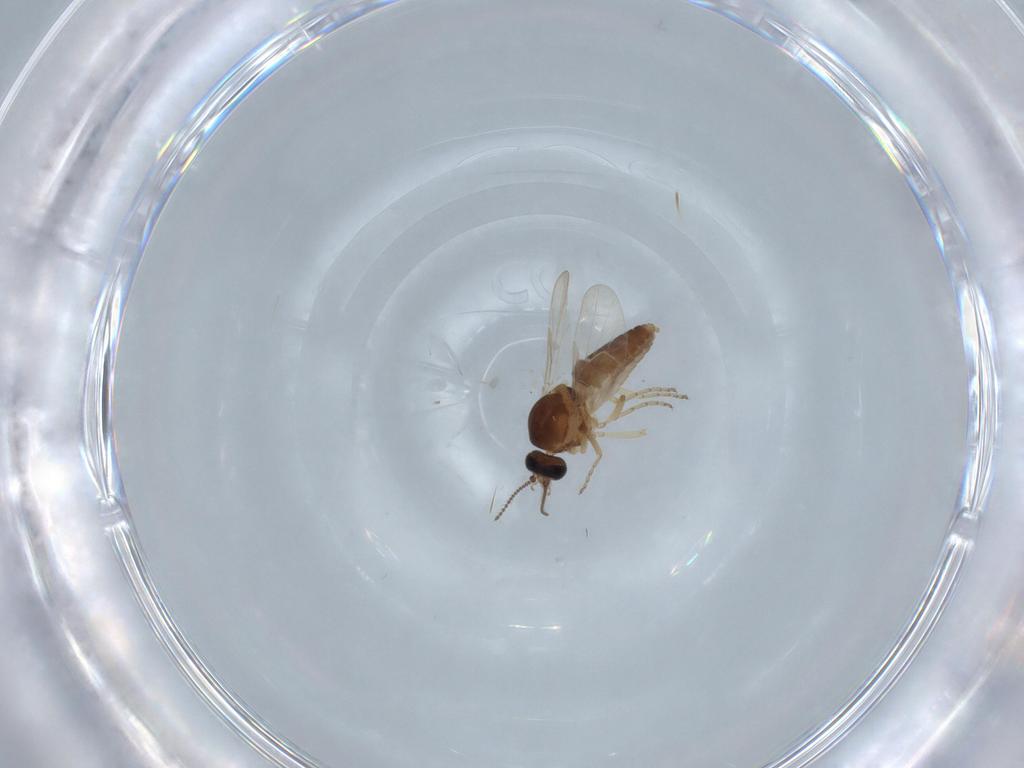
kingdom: Animalia
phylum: Arthropoda
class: Insecta
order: Diptera
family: Ceratopogonidae
